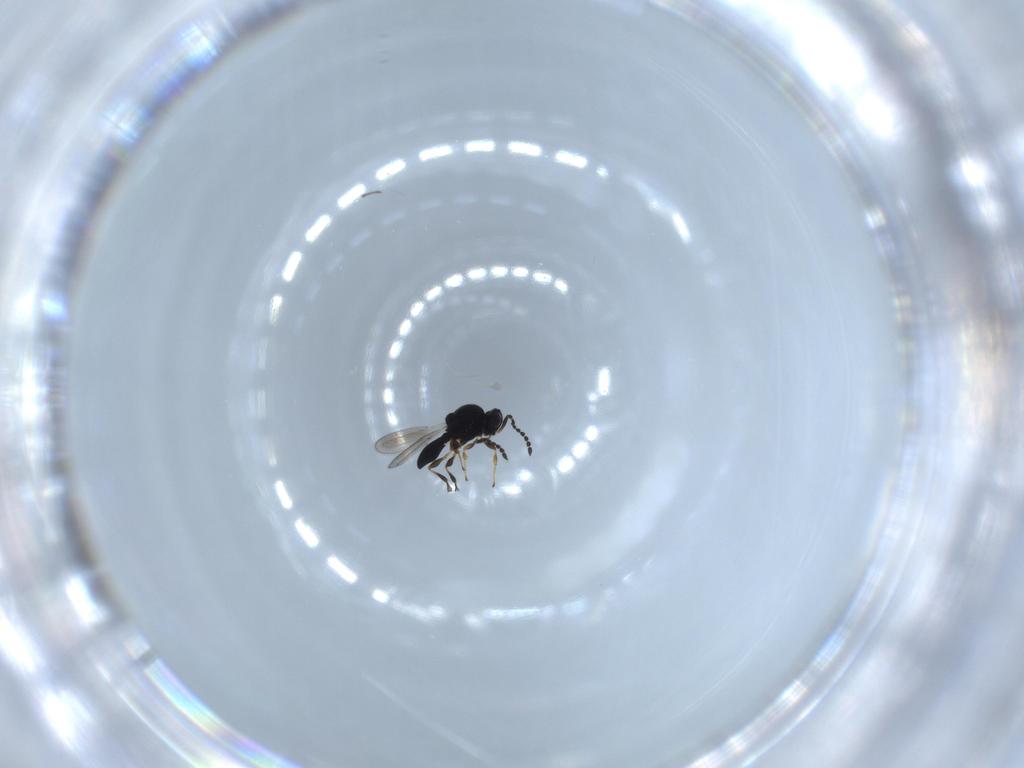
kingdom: Animalia
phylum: Arthropoda
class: Insecta
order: Hymenoptera
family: Platygastridae
